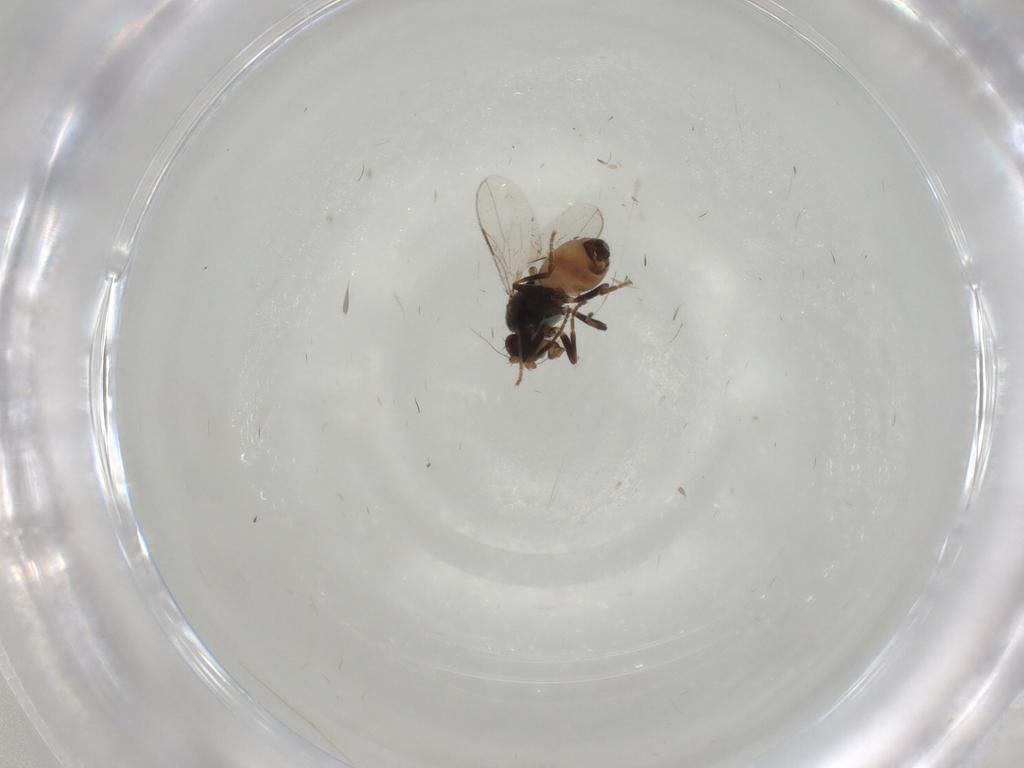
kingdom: Animalia
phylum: Arthropoda
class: Insecta
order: Diptera
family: Sphaeroceridae
